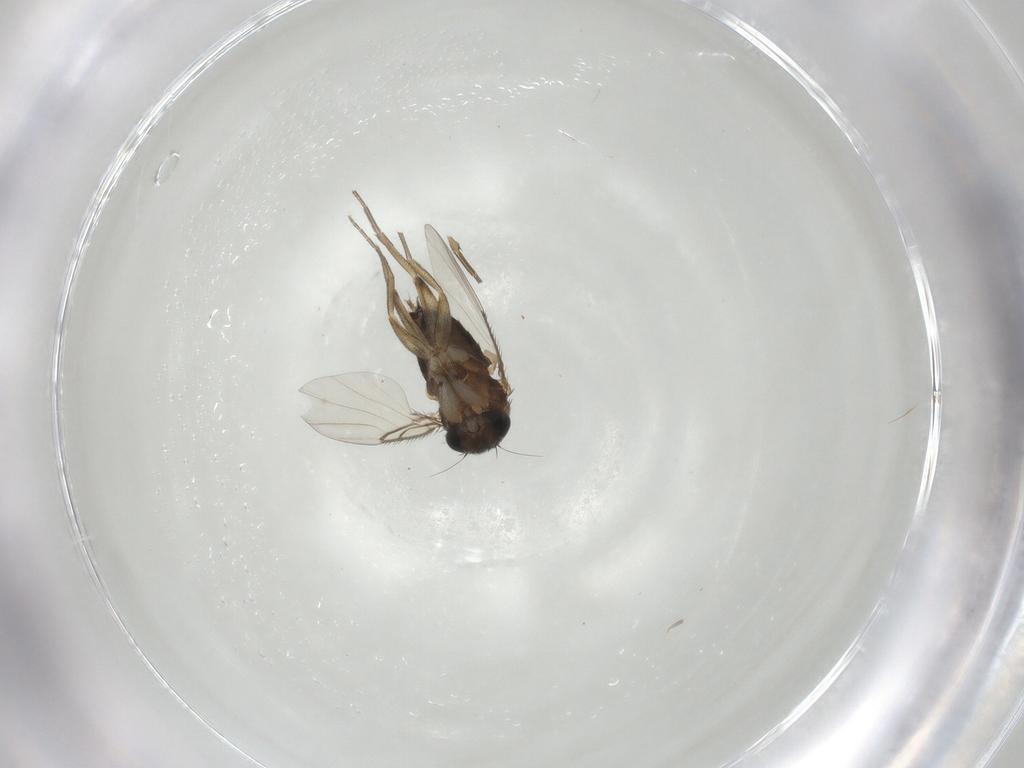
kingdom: Animalia
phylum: Arthropoda
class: Insecta
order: Diptera
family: Phoridae
